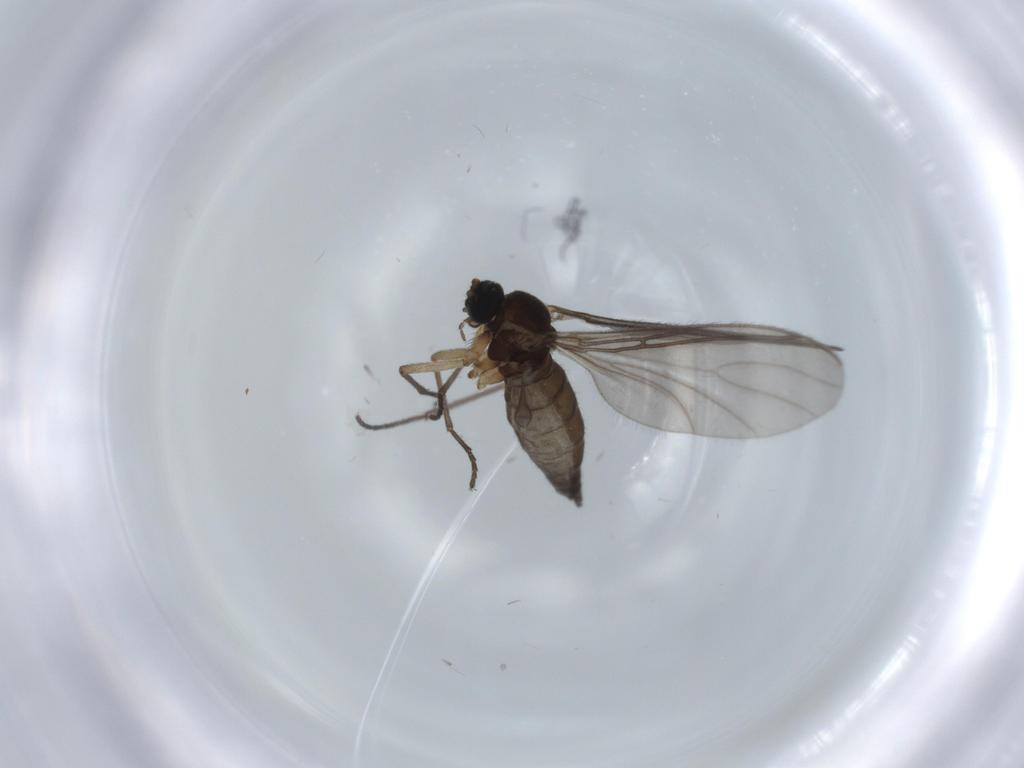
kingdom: Animalia
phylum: Arthropoda
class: Insecta
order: Diptera
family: Sciaridae
